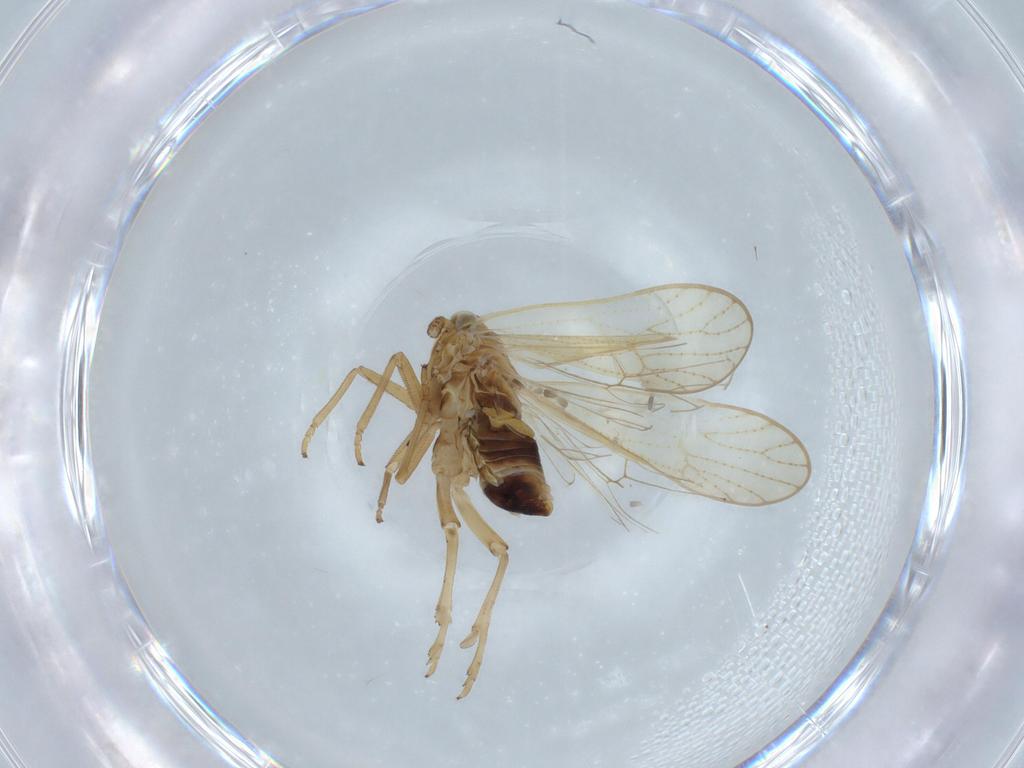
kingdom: Animalia
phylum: Arthropoda
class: Insecta
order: Hemiptera
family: Delphacidae
